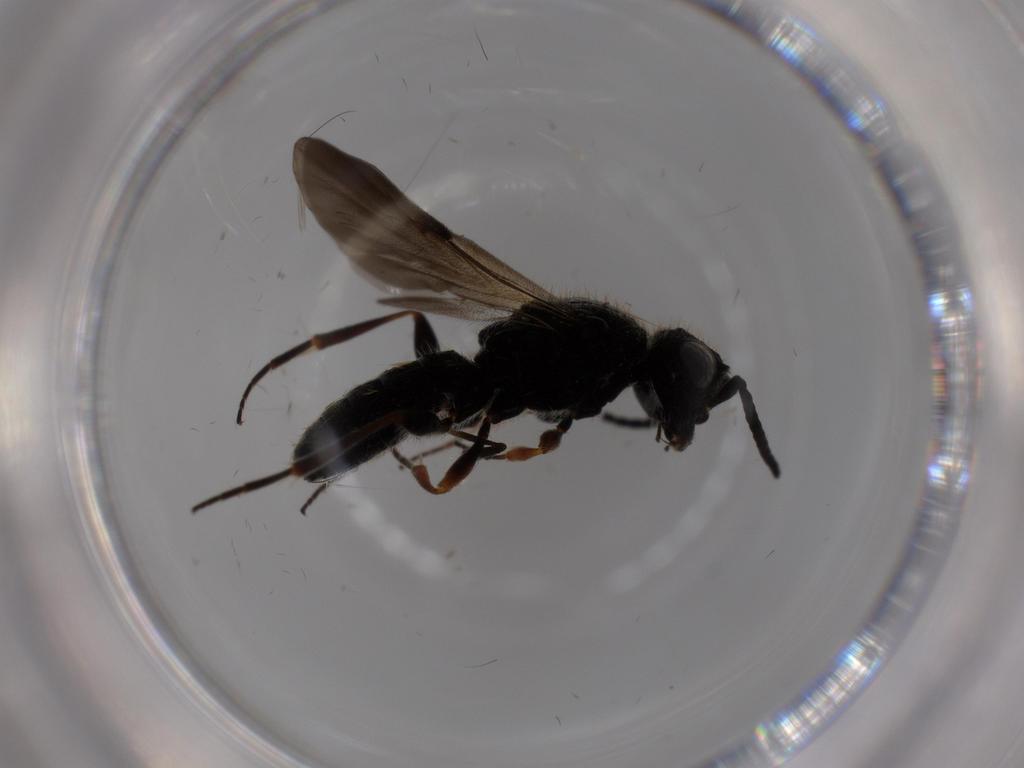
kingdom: Animalia
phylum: Arthropoda
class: Insecta
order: Hymenoptera
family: Scelionidae
